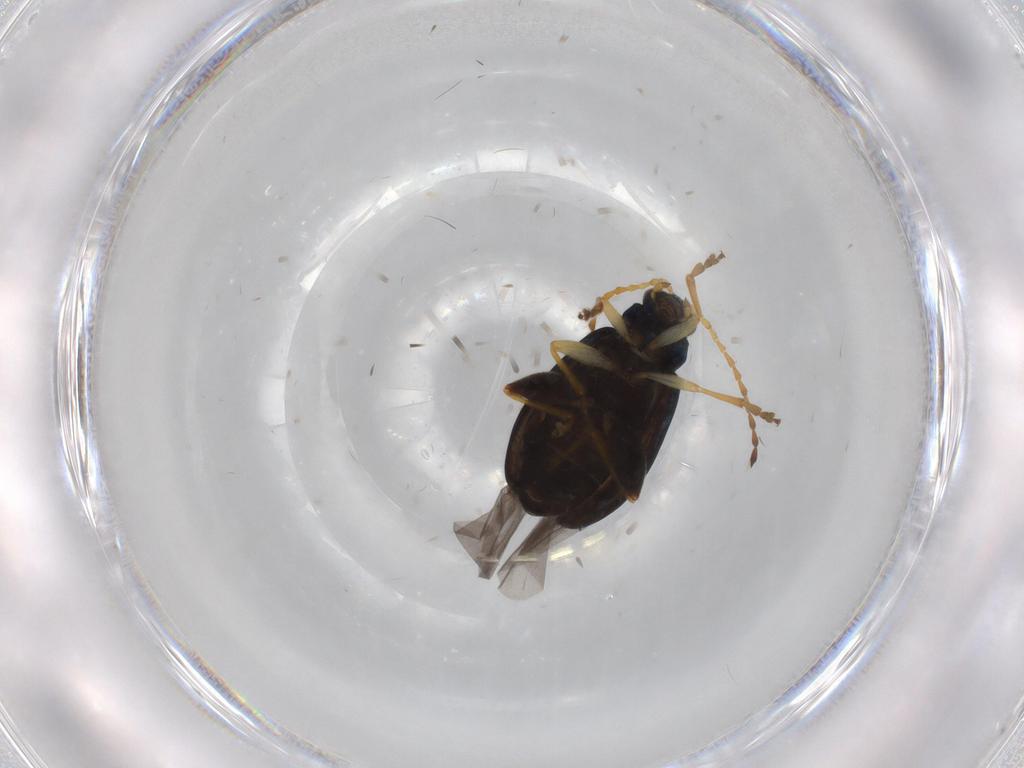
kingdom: Animalia
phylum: Arthropoda
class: Insecta
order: Coleoptera
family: Chrysomelidae
